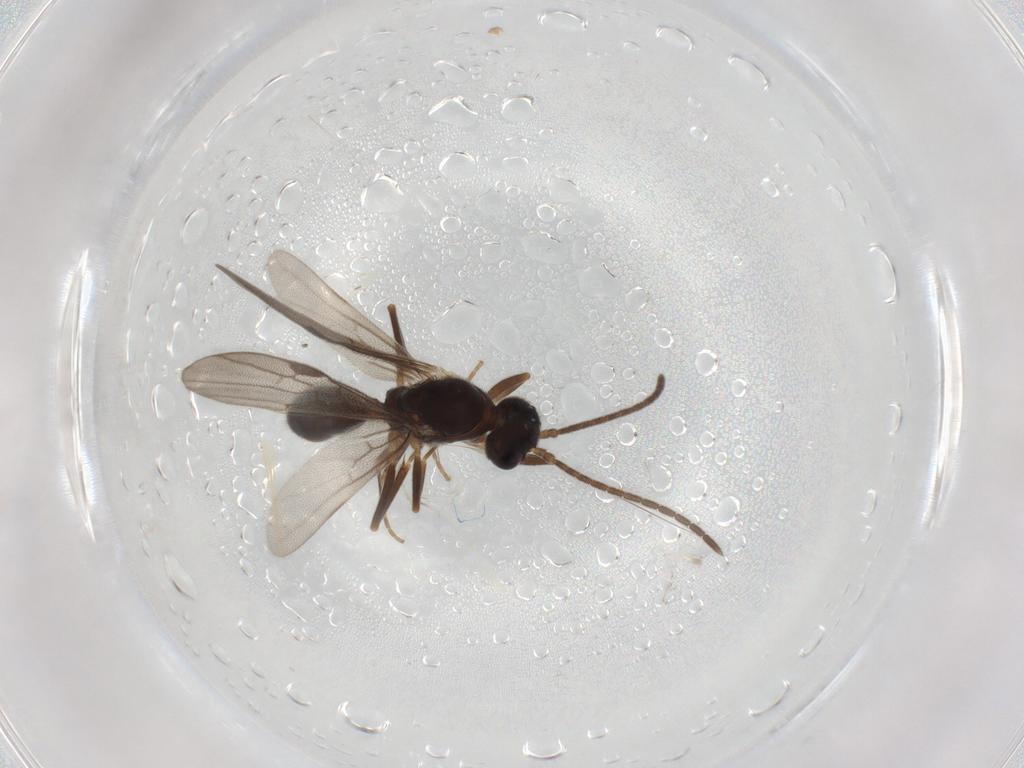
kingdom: Animalia
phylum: Arthropoda
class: Insecta
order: Hymenoptera
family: Formicidae
